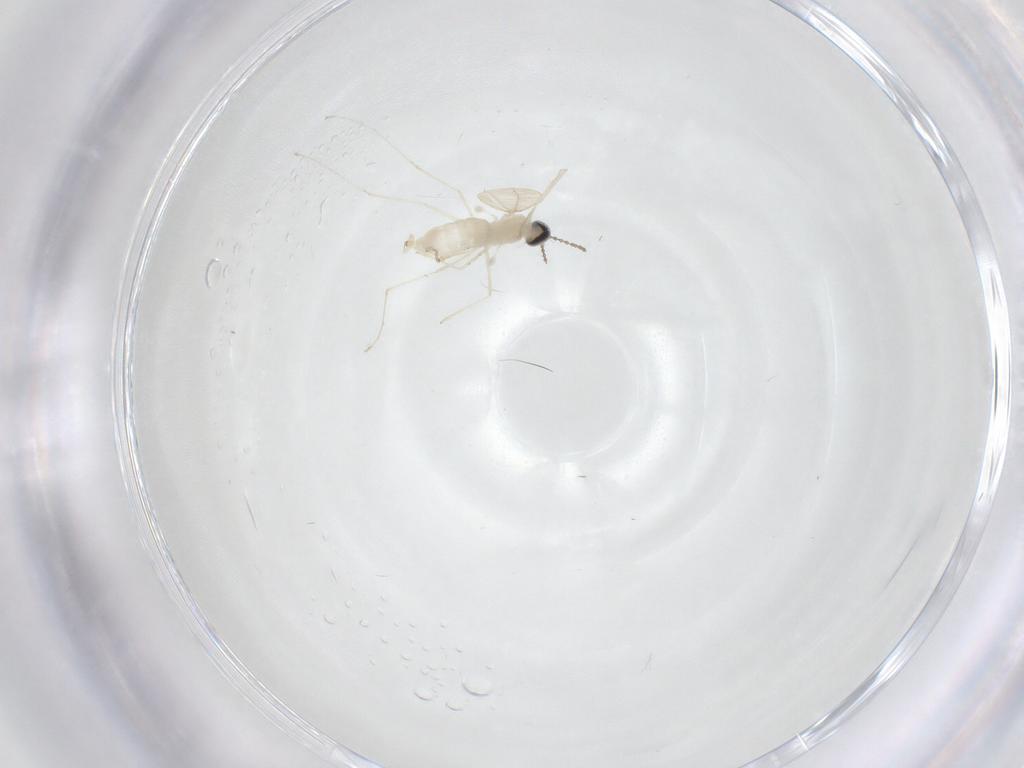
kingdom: Animalia
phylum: Arthropoda
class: Insecta
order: Diptera
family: Cecidomyiidae
